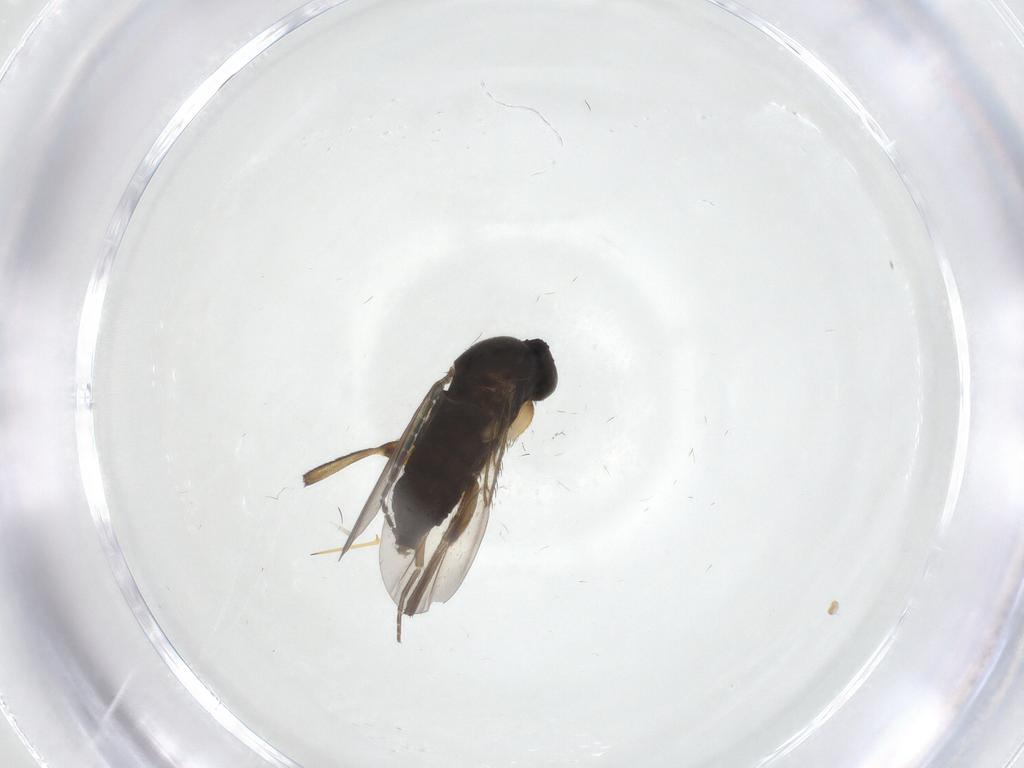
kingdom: Animalia
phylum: Arthropoda
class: Insecta
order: Diptera
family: Phoridae
